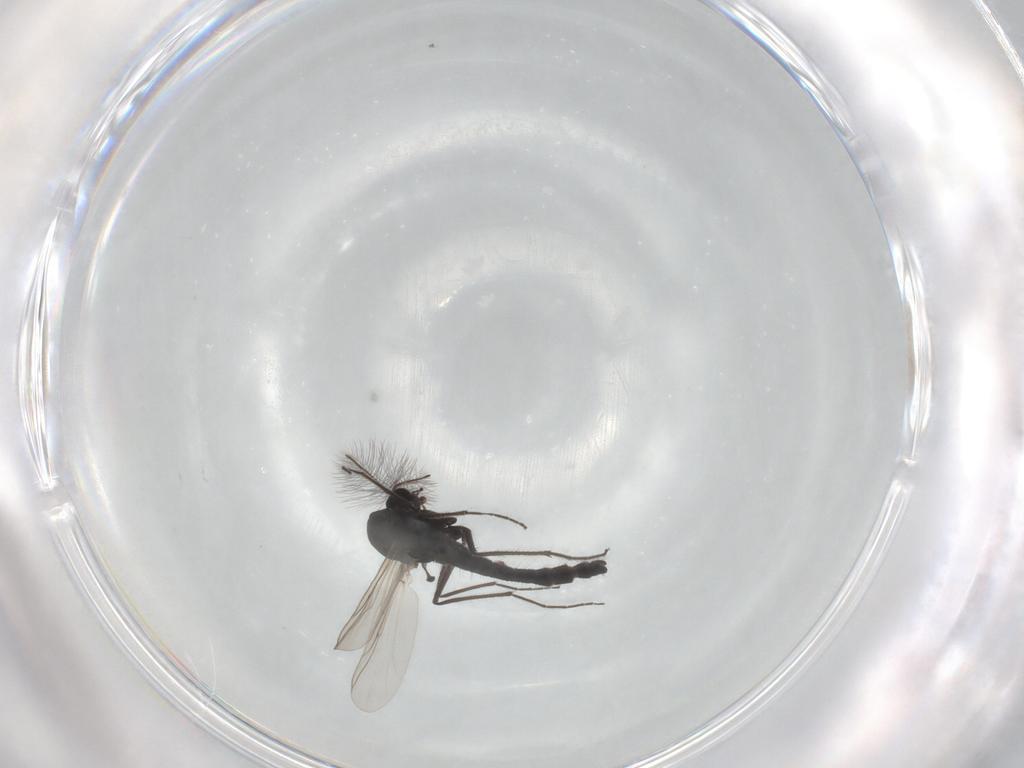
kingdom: Animalia
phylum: Arthropoda
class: Insecta
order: Diptera
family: Chironomidae
